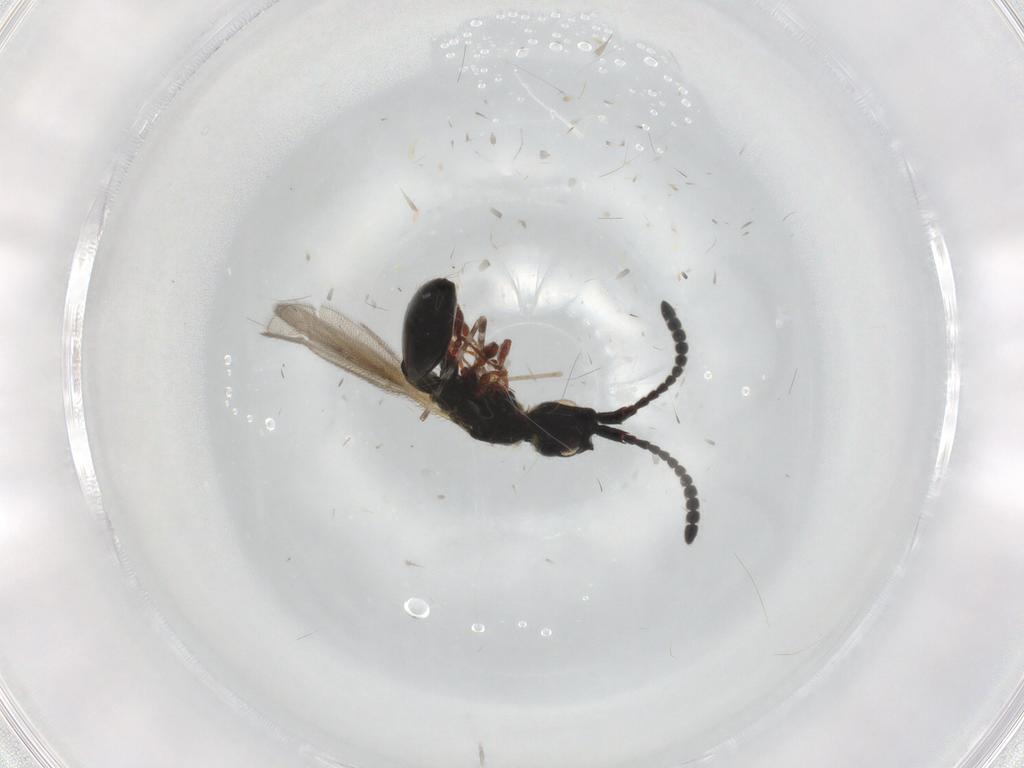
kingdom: Animalia
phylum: Arthropoda
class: Insecta
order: Hymenoptera
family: Diapriidae
